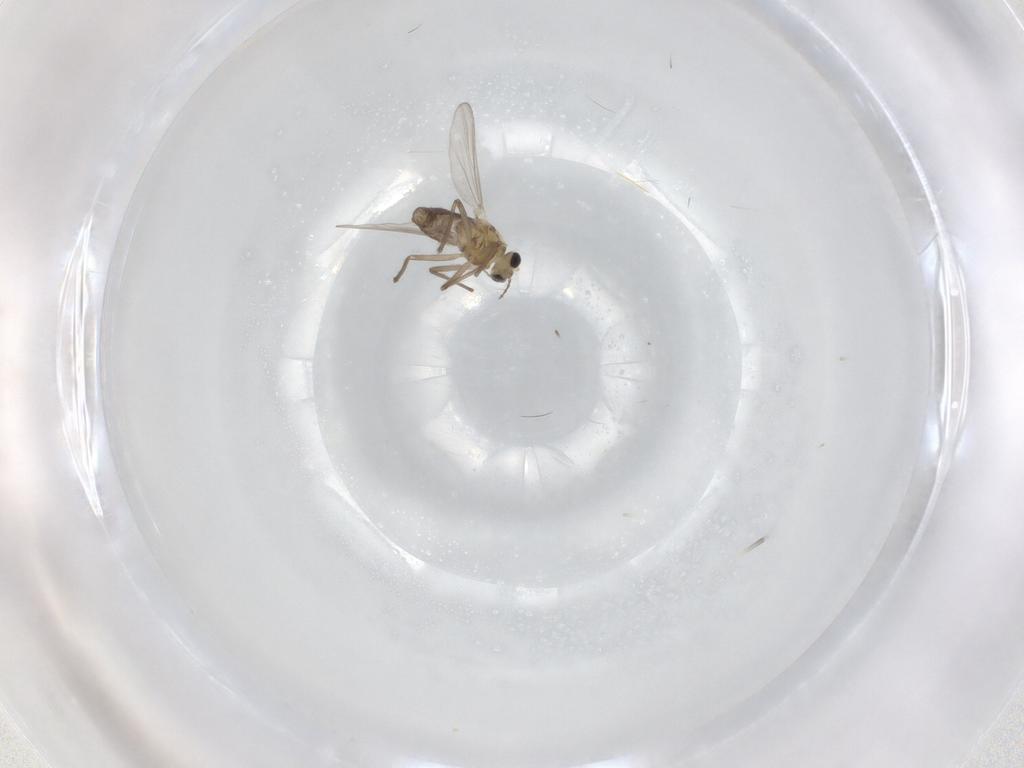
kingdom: Animalia
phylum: Arthropoda
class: Insecta
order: Diptera
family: Chironomidae
